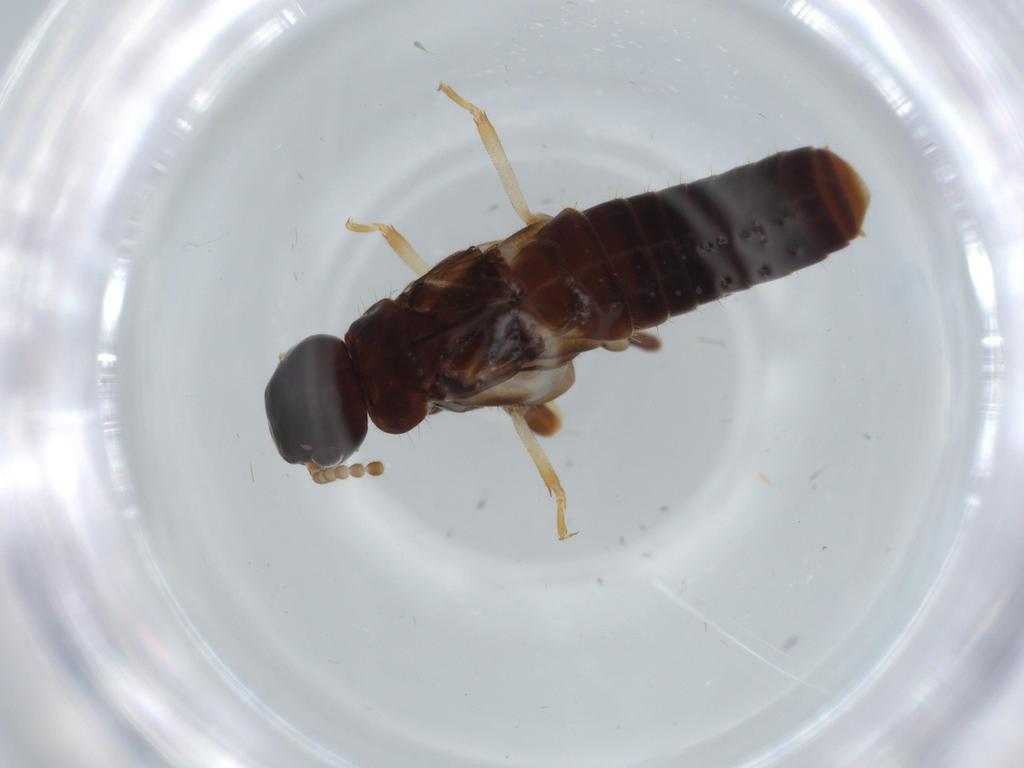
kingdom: Animalia
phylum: Arthropoda
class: Insecta
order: Blattodea
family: Kalotermitidae
